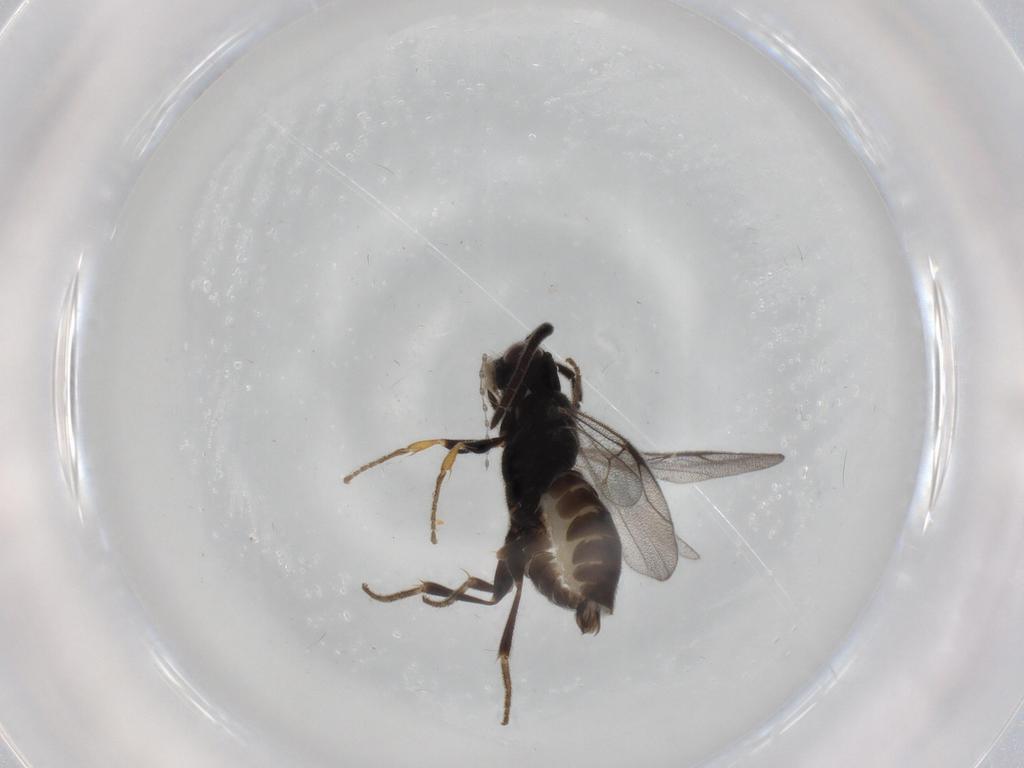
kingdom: Animalia
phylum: Arthropoda
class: Insecta
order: Hymenoptera
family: Dryinidae
